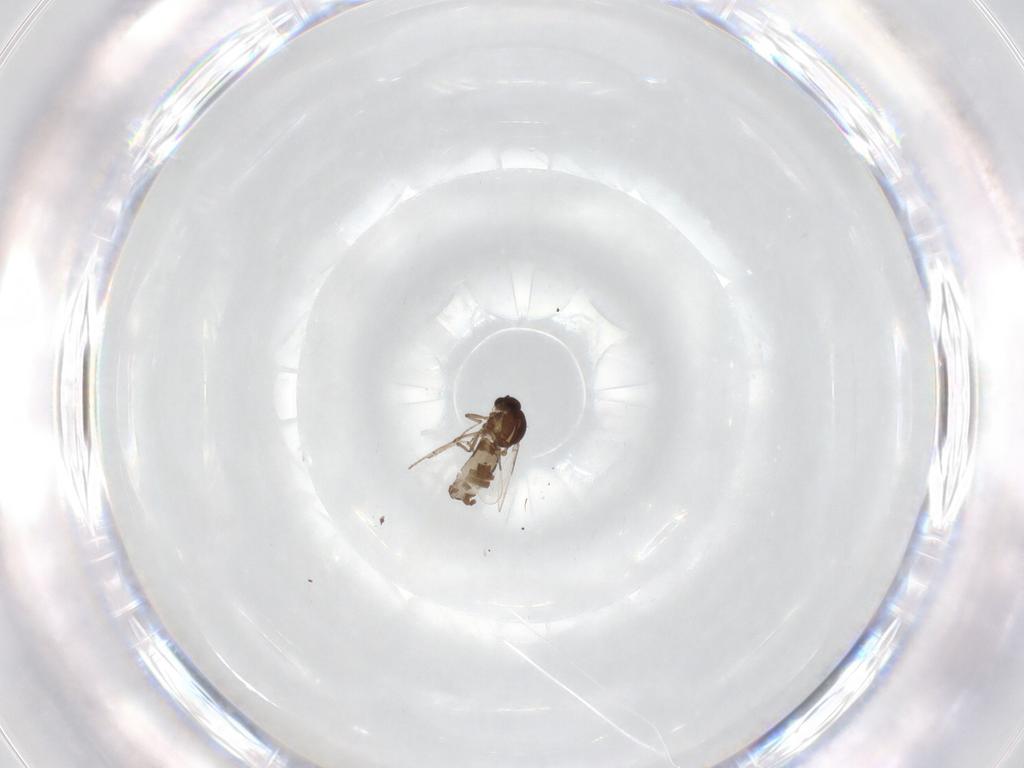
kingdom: Animalia
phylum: Arthropoda
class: Insecta
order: Diptera
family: Ceratopogonidae
